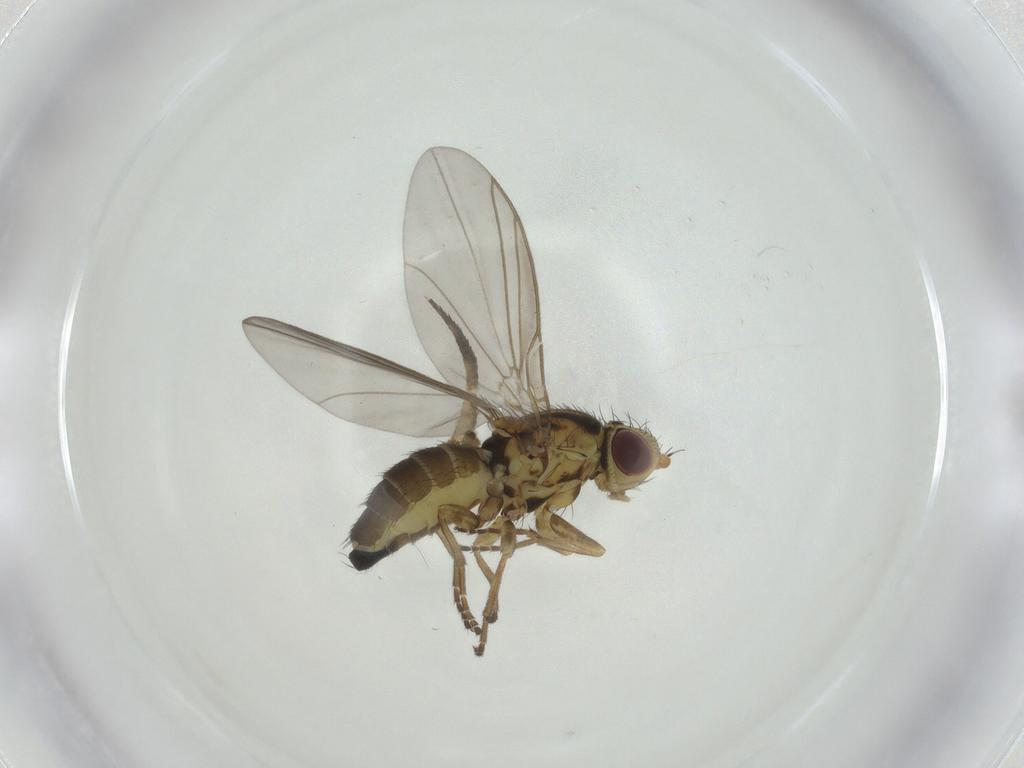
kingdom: Animalia
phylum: Arthropoda
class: Insecta
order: Diptera
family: Agromyzidae
